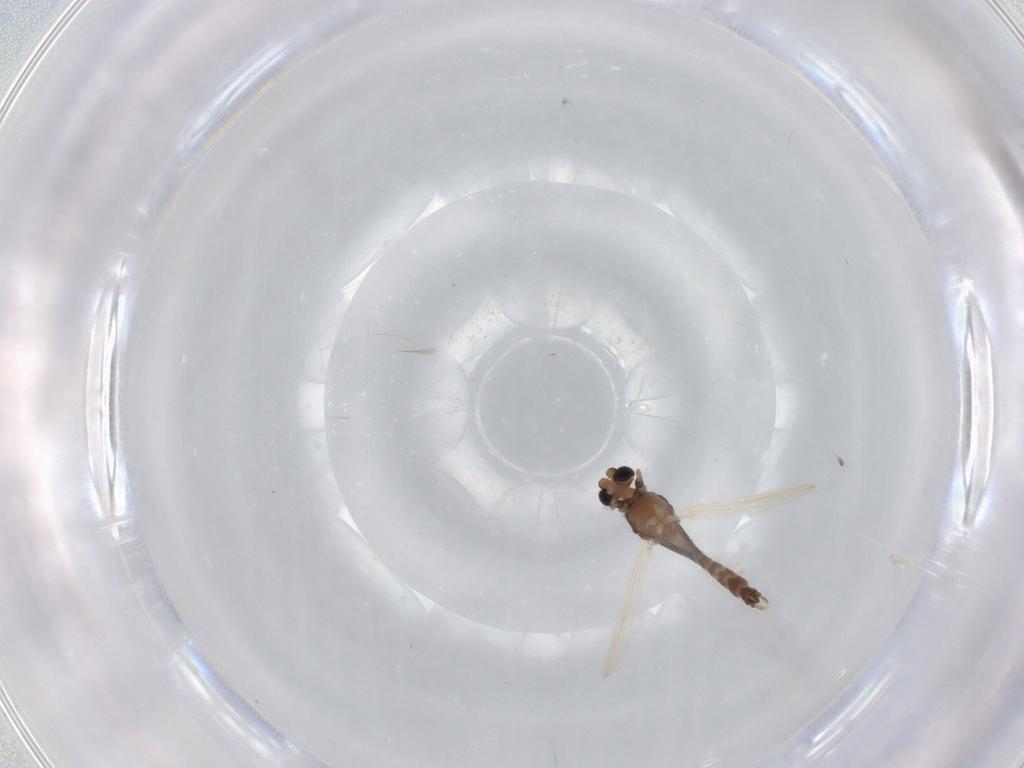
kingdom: Animalia
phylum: Arthropoda
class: Insecta
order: Diptera
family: Chironomidae
